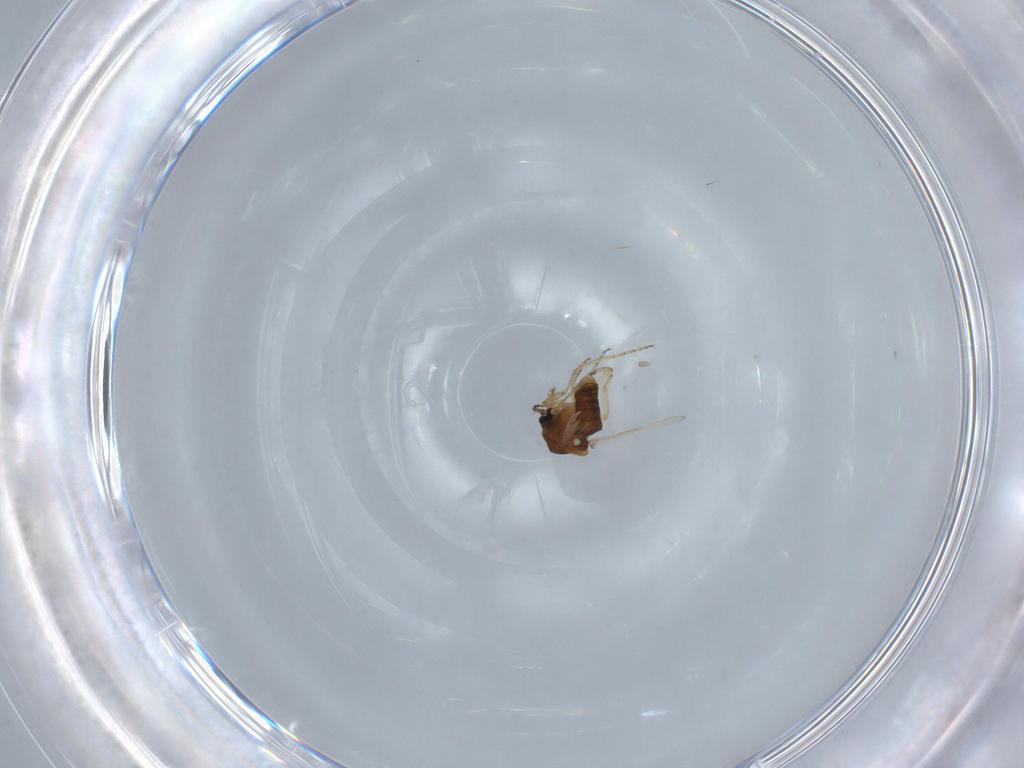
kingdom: Animalia
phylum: Arthropoda
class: Insecta
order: Diptera
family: Ceratopogonidae
